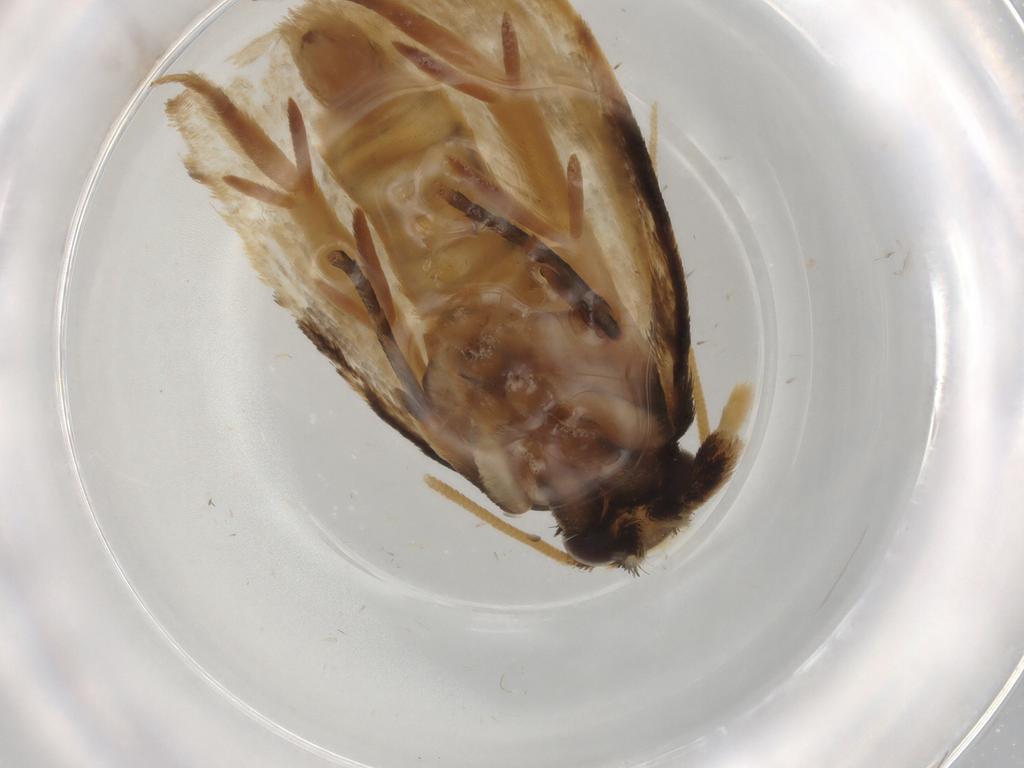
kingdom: Animalia
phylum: Arthropoda
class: Insecta
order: Lepidoptera
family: Tineidae
